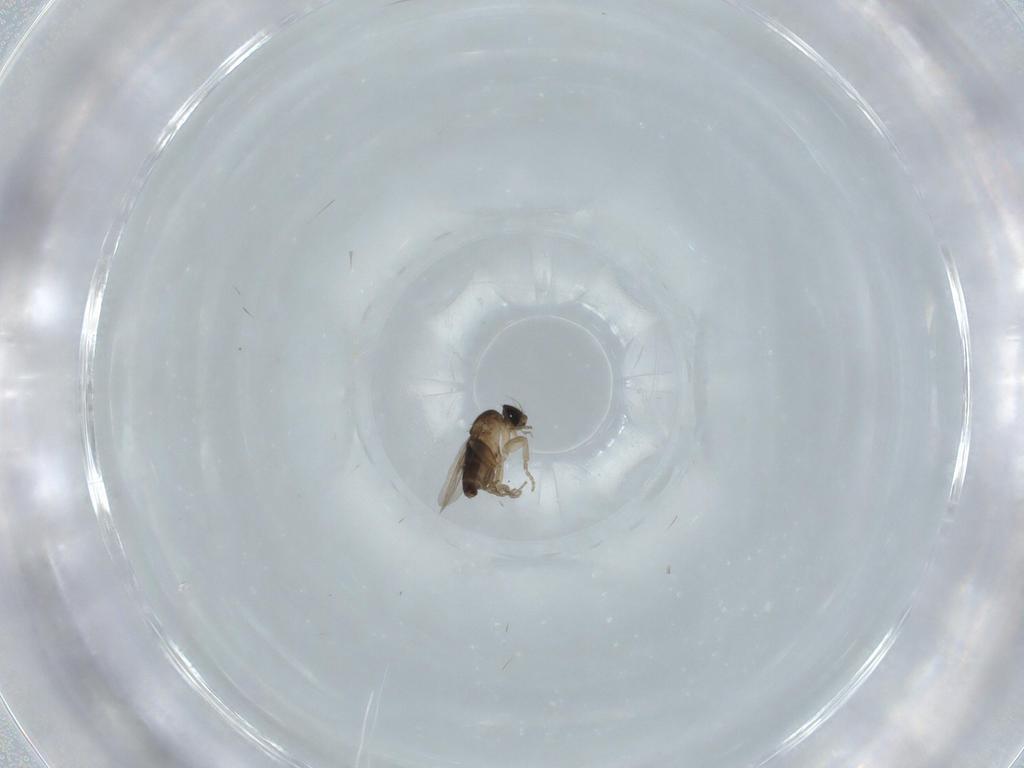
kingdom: Animalia
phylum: Arthropoda
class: Insecta
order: Diptera
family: Phoridae
